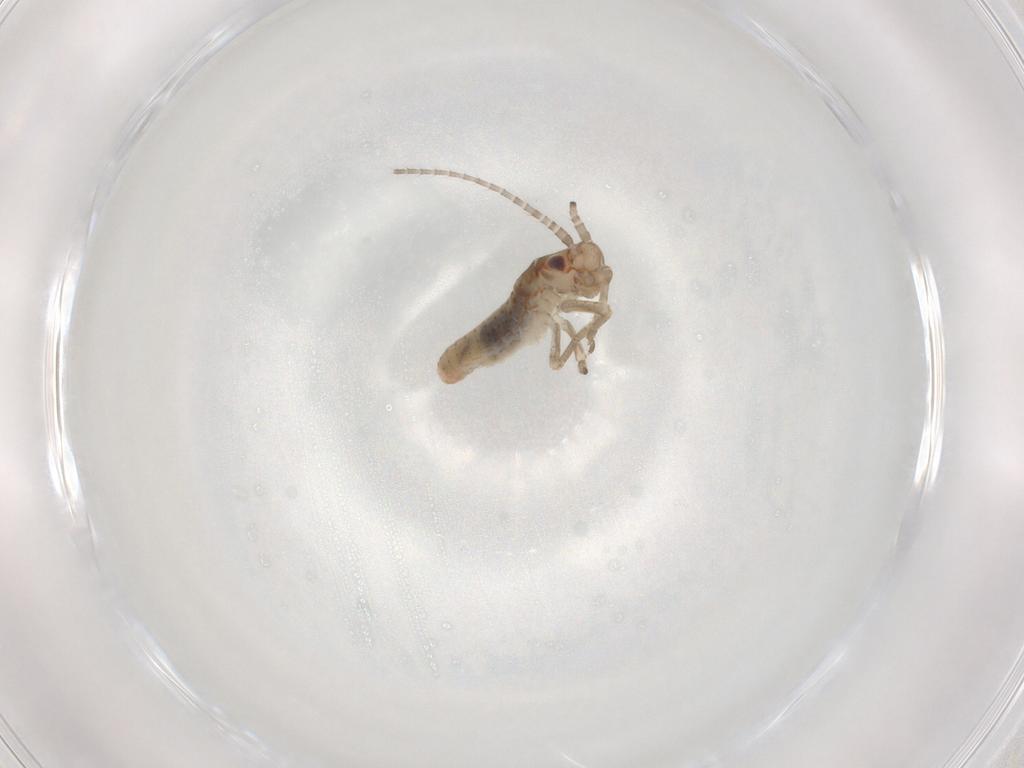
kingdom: Animalia
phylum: Arthropoda
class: Insecta
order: Orthoptera
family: Mogoplistidae
